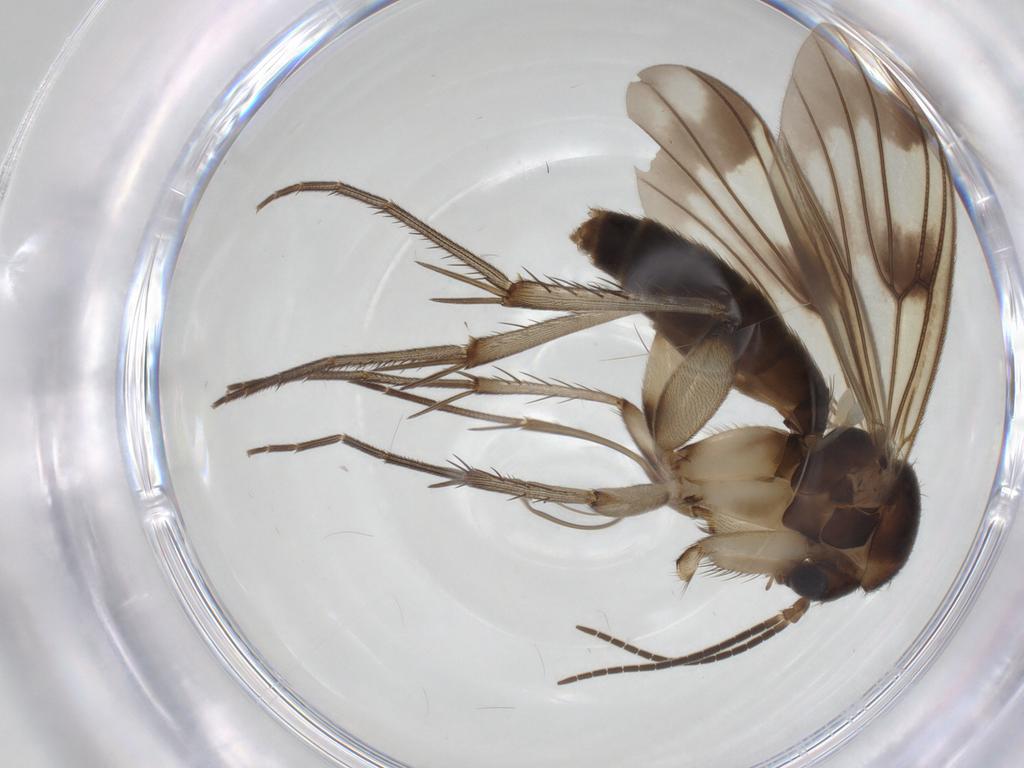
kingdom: Animalia
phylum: Arthropoda
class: Insecta
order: Diptera
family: Mycetophilidae
